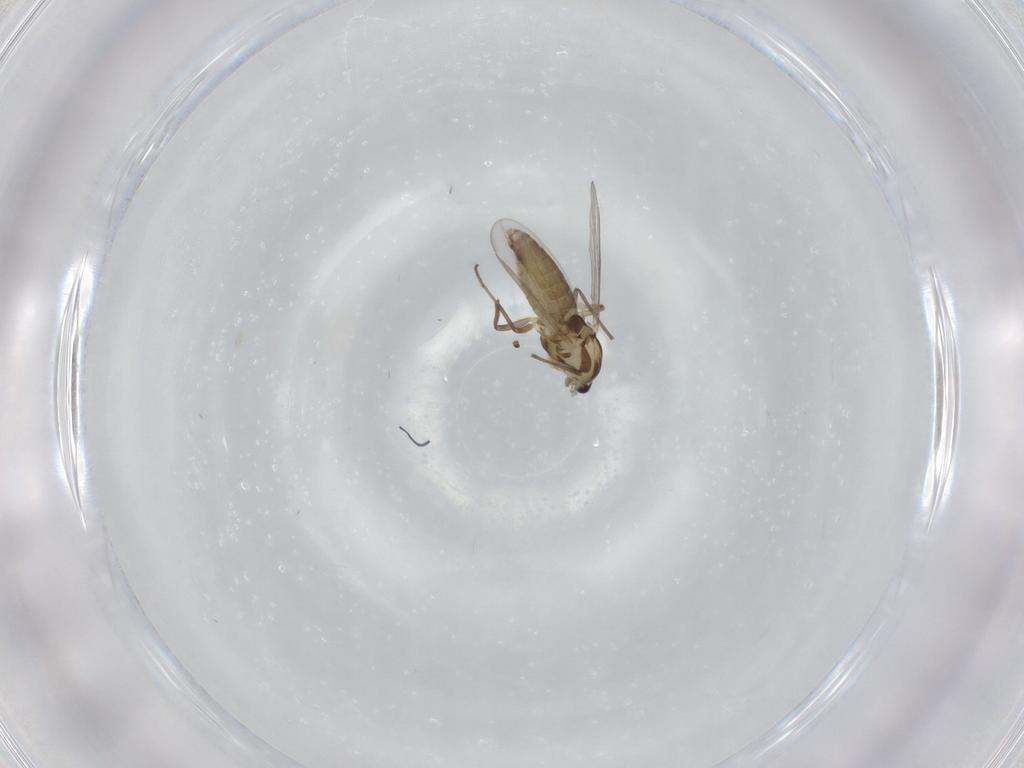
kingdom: Animalia
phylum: Arthropoda
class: Insecta
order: Diptera
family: Chironomidae
